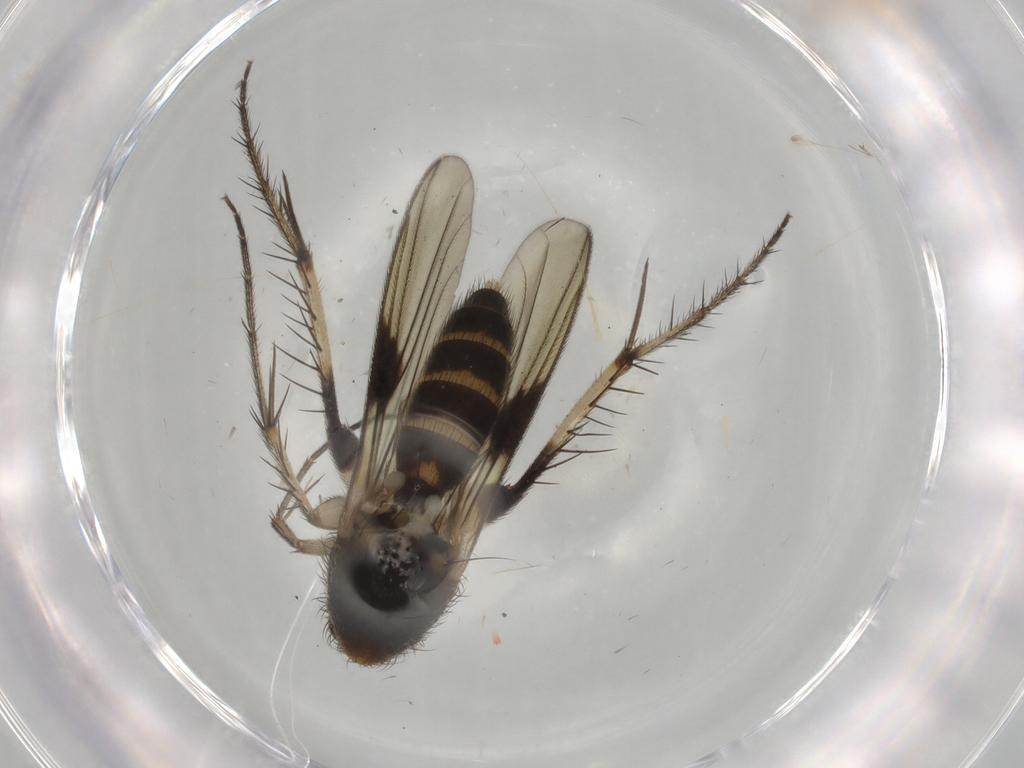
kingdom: Animalia
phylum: Arthropoda
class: Insecta
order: Diptera
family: Mycetophilidae
